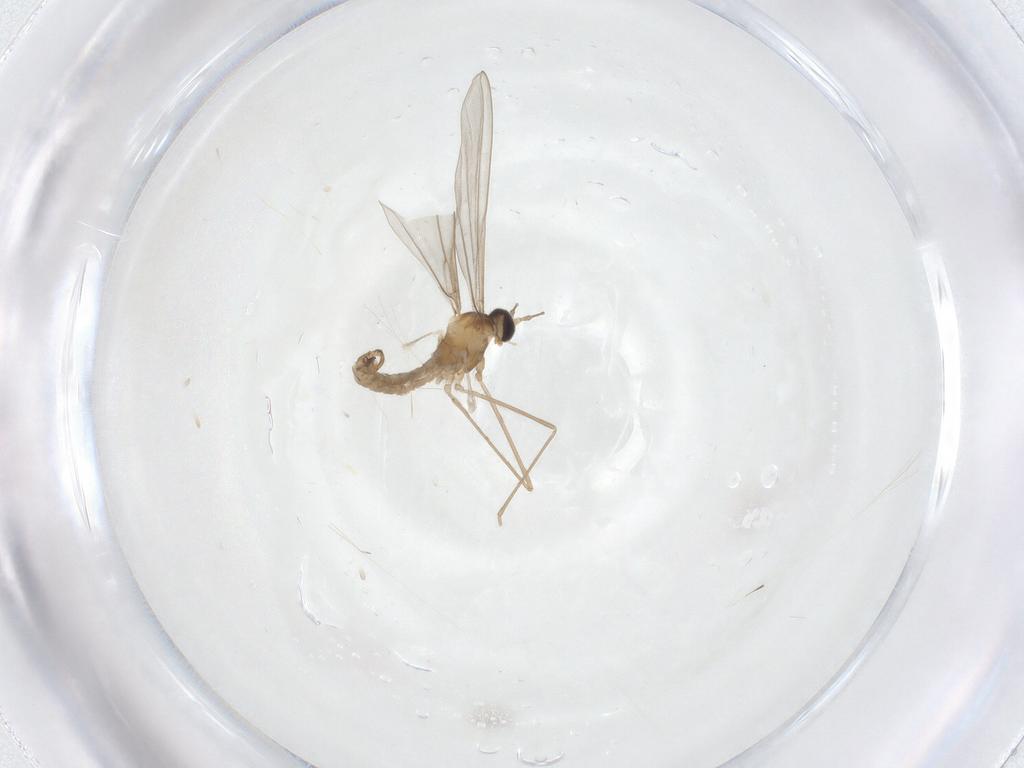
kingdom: Animalia
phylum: Arthropoda
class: Insecta
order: Diptera
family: Cecidomyiidae
